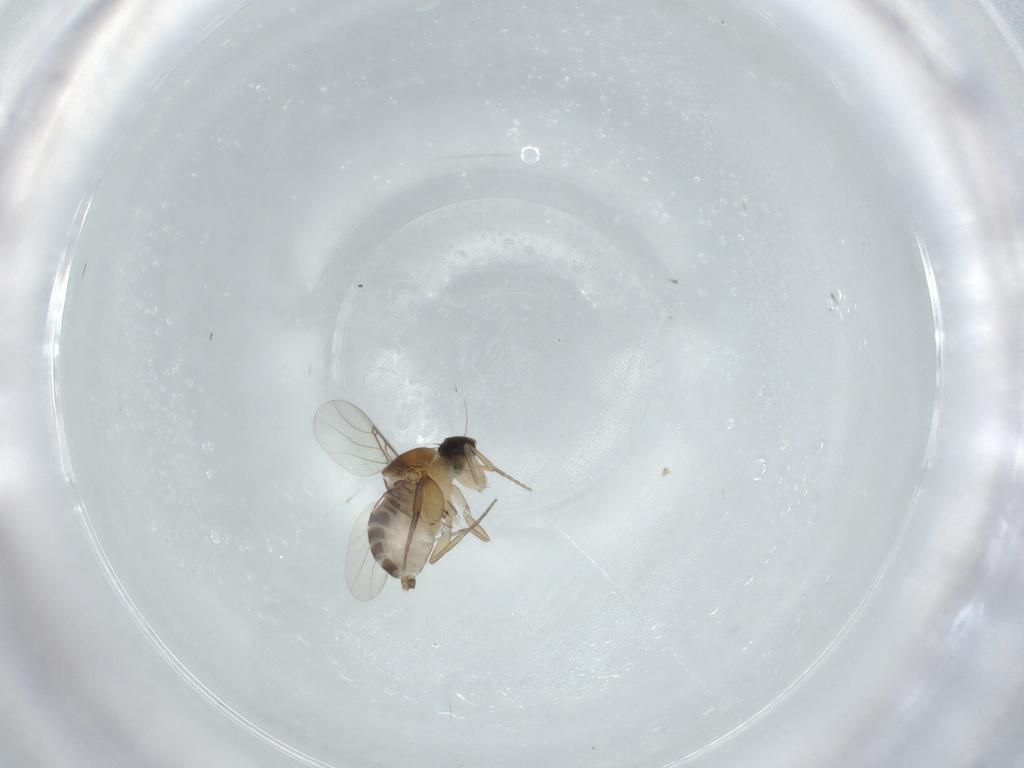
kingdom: Animalia
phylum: Arthropoda
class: Insecta
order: Diptera
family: Phoridae
